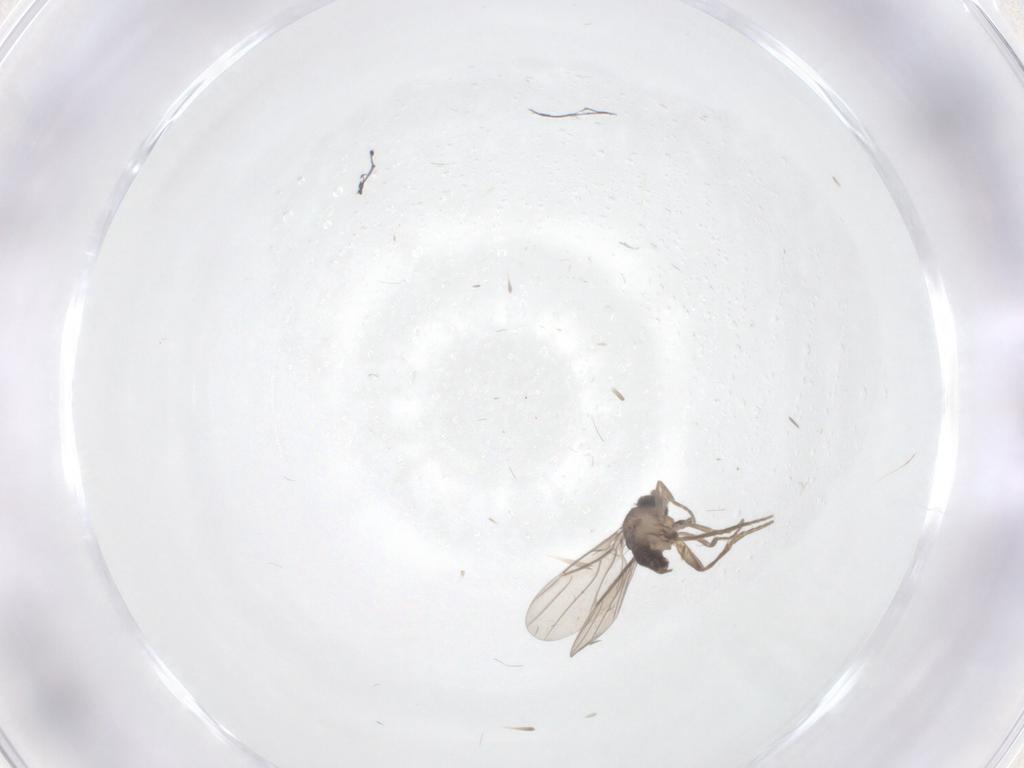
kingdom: Animalia
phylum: Arthropoda
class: Insecta
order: Diptera
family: Phoridae
